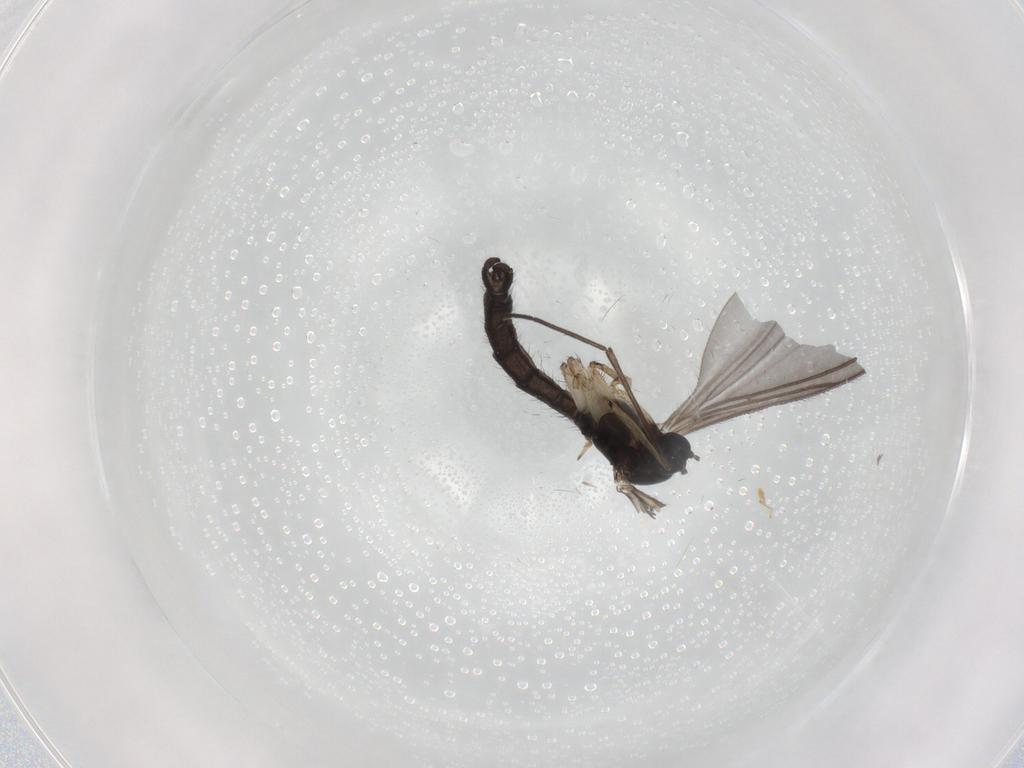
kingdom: Animalia
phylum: Arthropoda
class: Insecta
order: Diptera
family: Sciaridae
